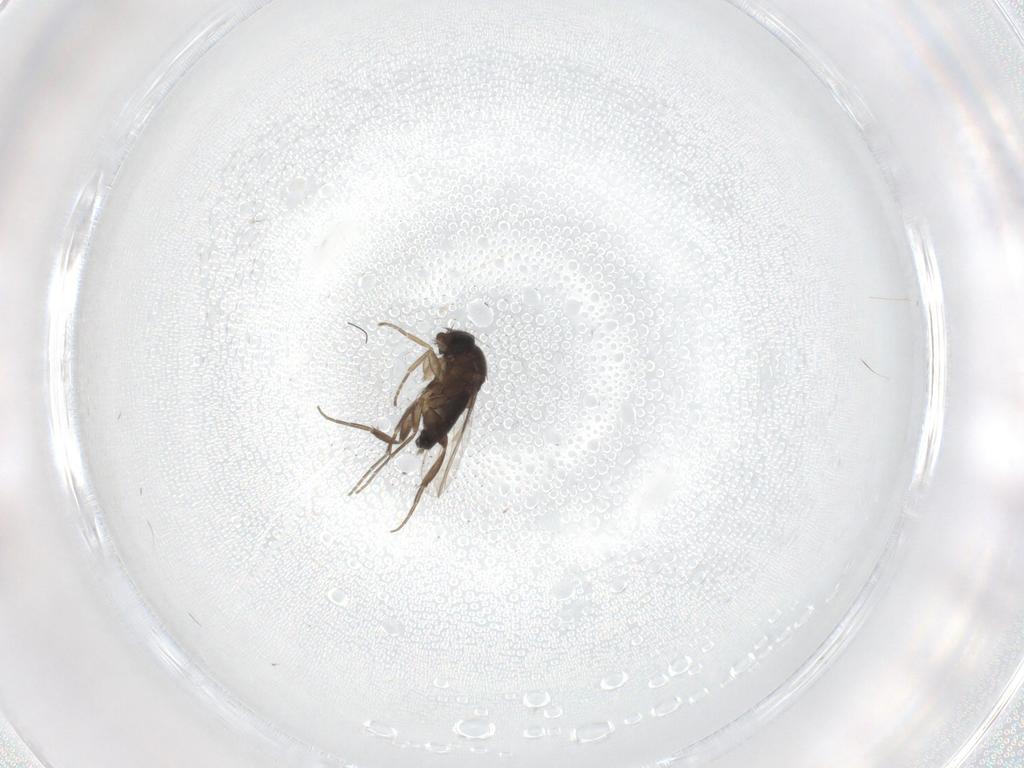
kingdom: Animalia
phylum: Arthropoda
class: Insecta
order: Diptera
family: Phoridae
